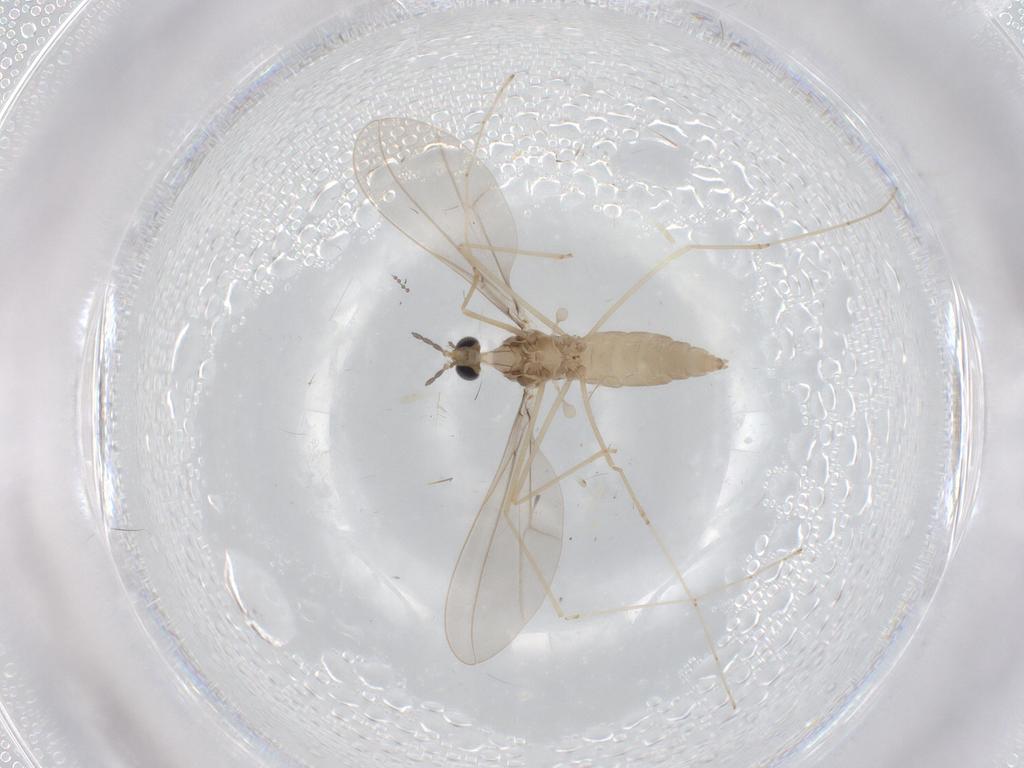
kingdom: Animalia
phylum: Arthropoda
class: Insecta
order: Diptera
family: Cecidomyiidae
